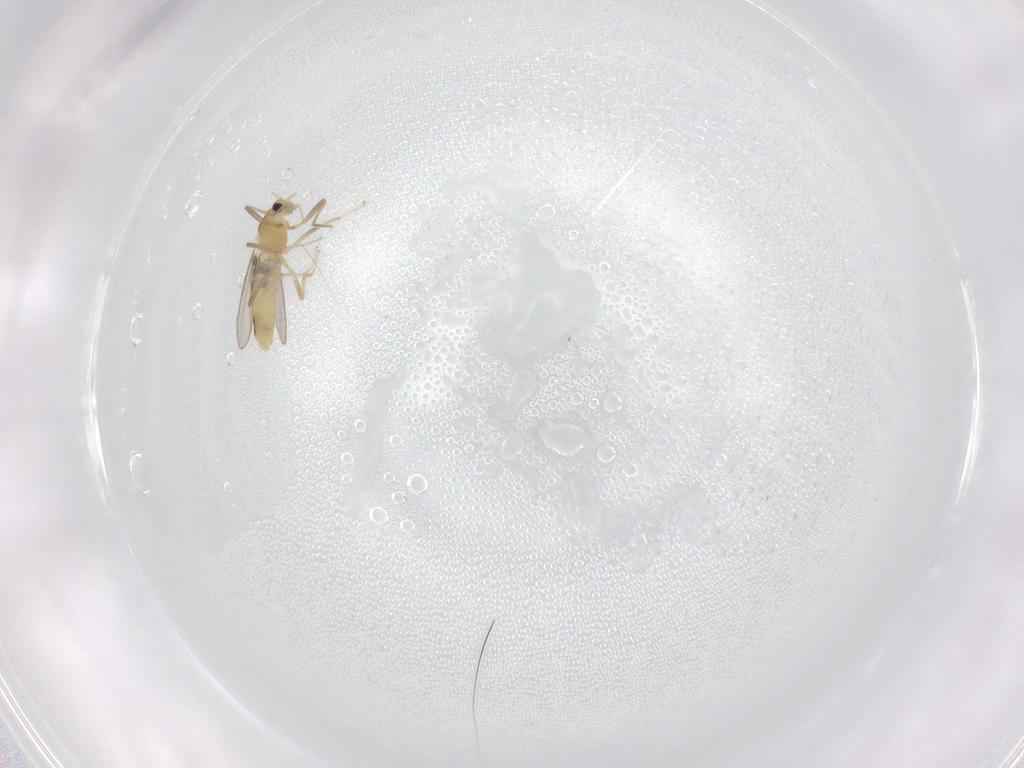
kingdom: Animalia
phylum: Arthropoda
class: Insecta
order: Diptera
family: Chironomidae
